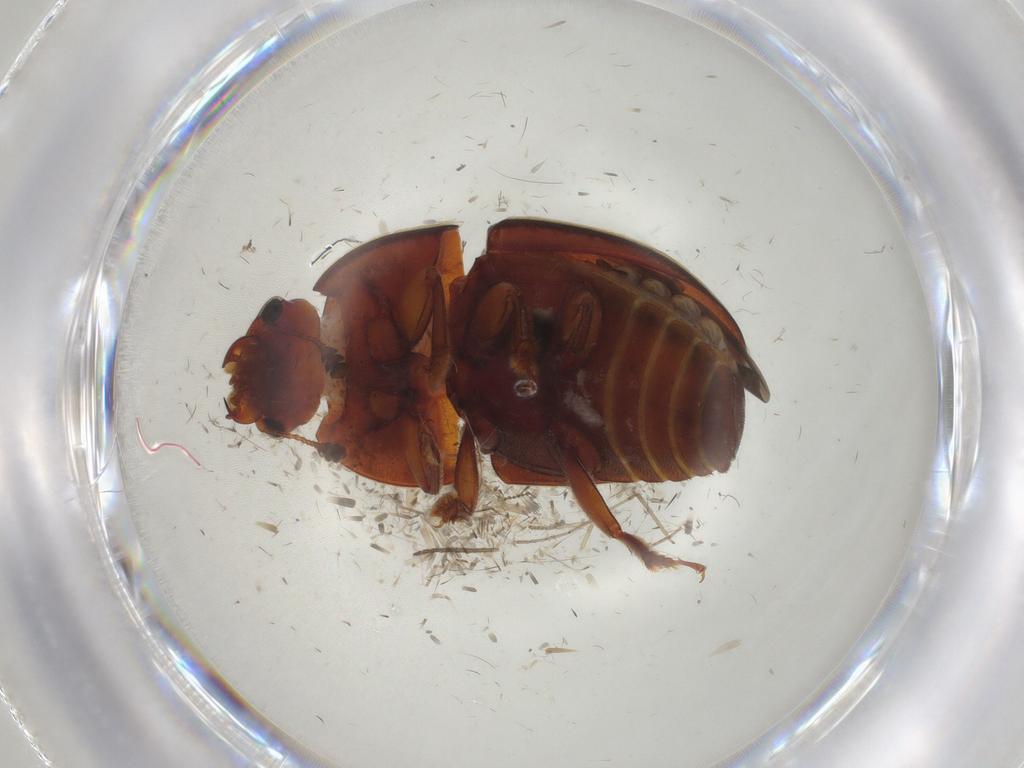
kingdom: Animalia
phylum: Arthropoda
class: Insecta
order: Coleoptera
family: Nitidulidae
